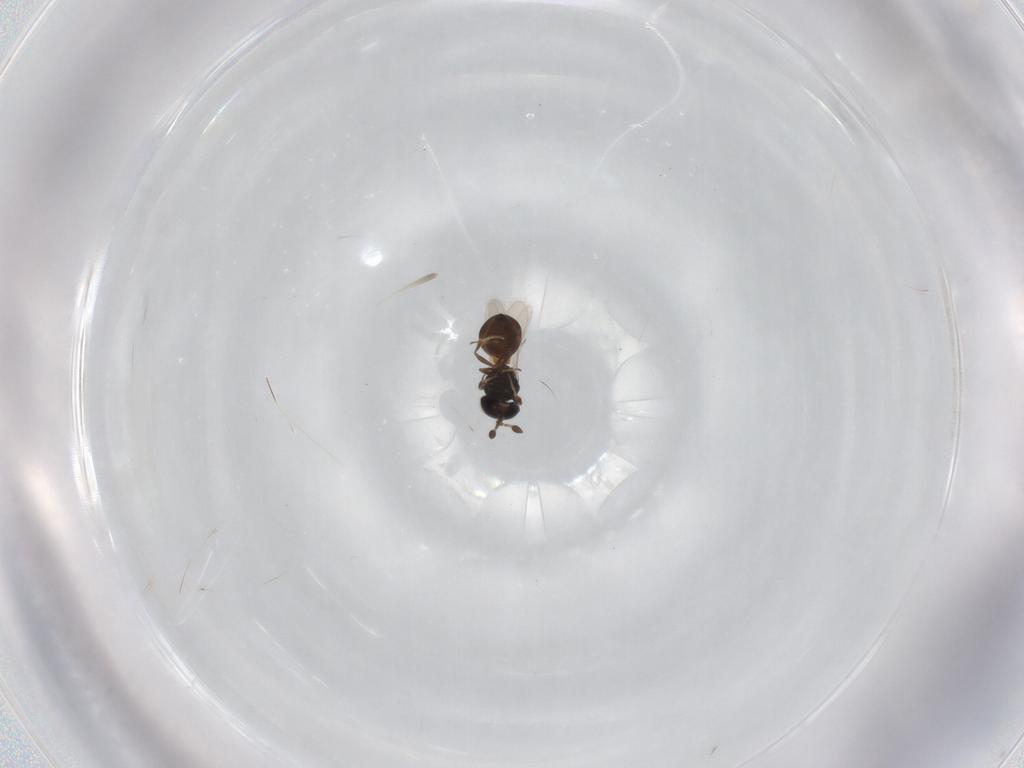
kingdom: Animalia
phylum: Arthropoda
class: Insecta
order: Hymenoptera
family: Scelionidae
